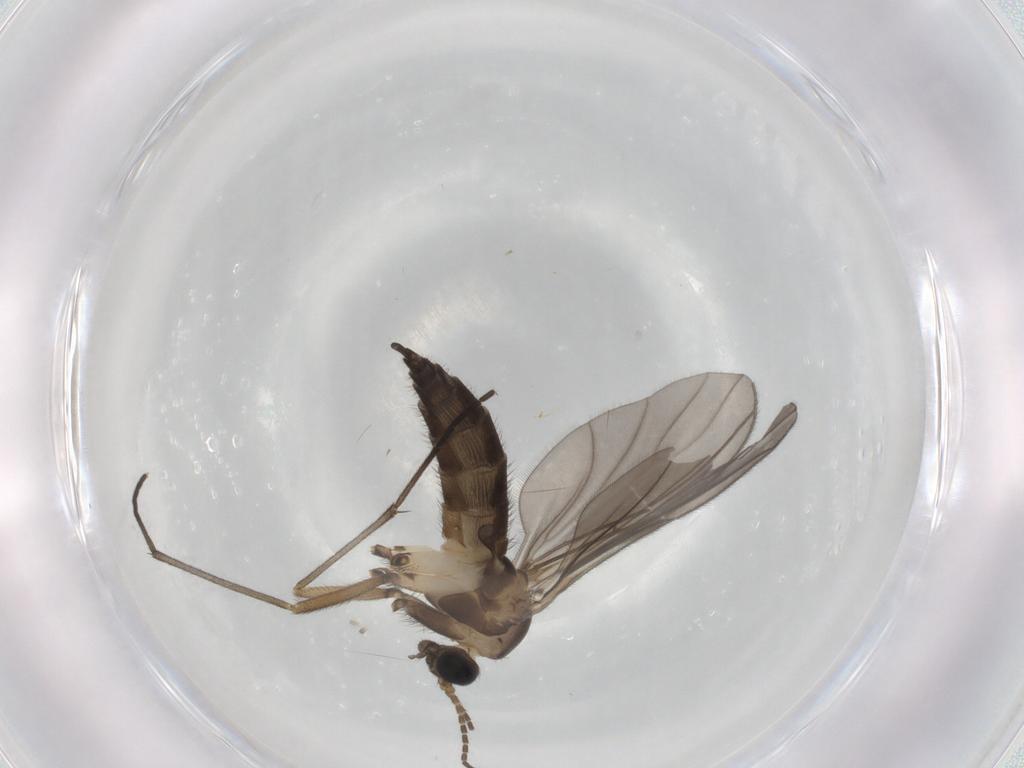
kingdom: Animalia
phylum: Arthropoda
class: Insecta
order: Diptera
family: Sciaridae
